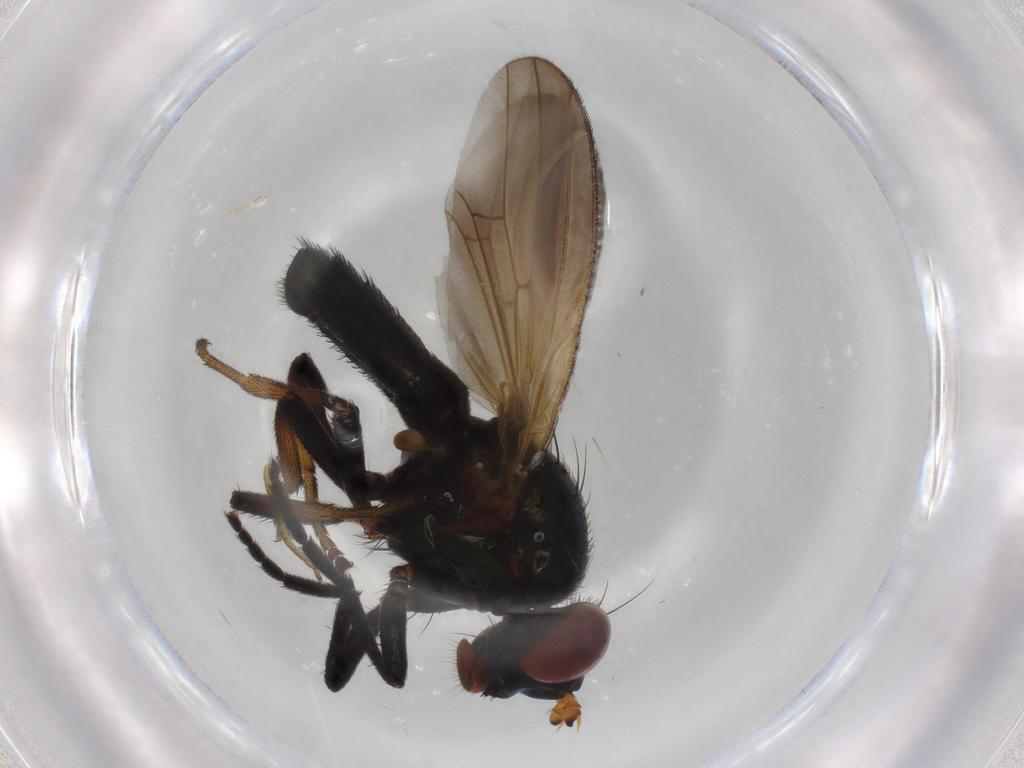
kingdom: Animalia
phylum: Arthropoda
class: Insecta
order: Diptera
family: Lauxaniidae
